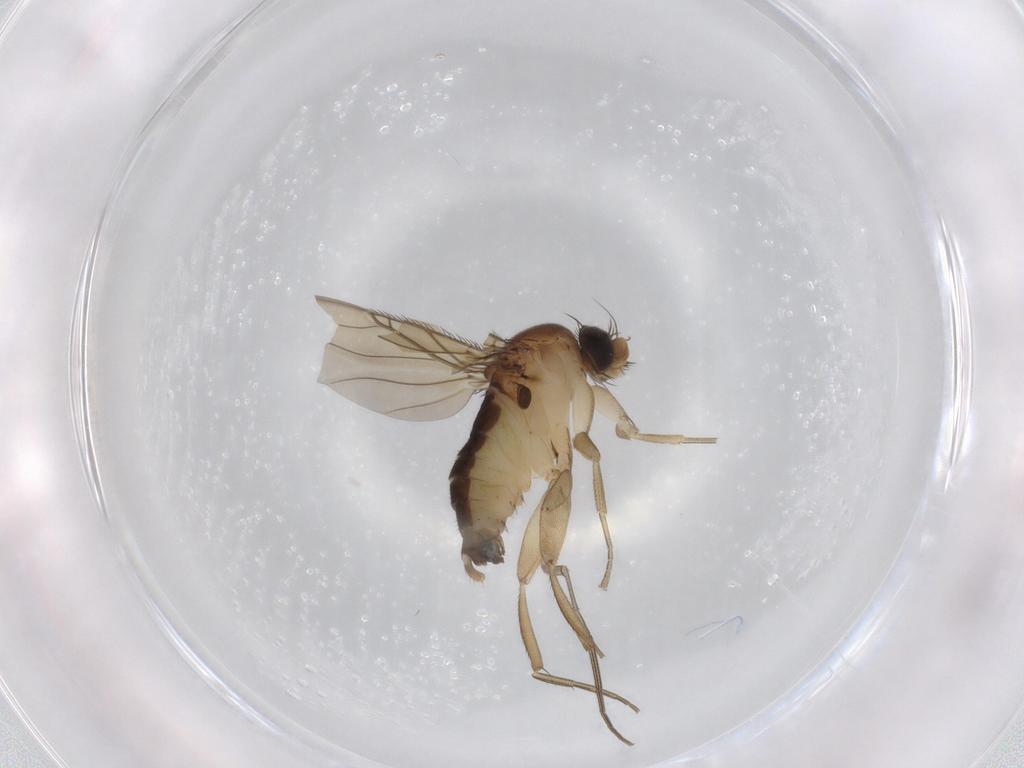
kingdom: Animalia
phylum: Arthropoda
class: Insecta
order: Diptera
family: Phoridae
